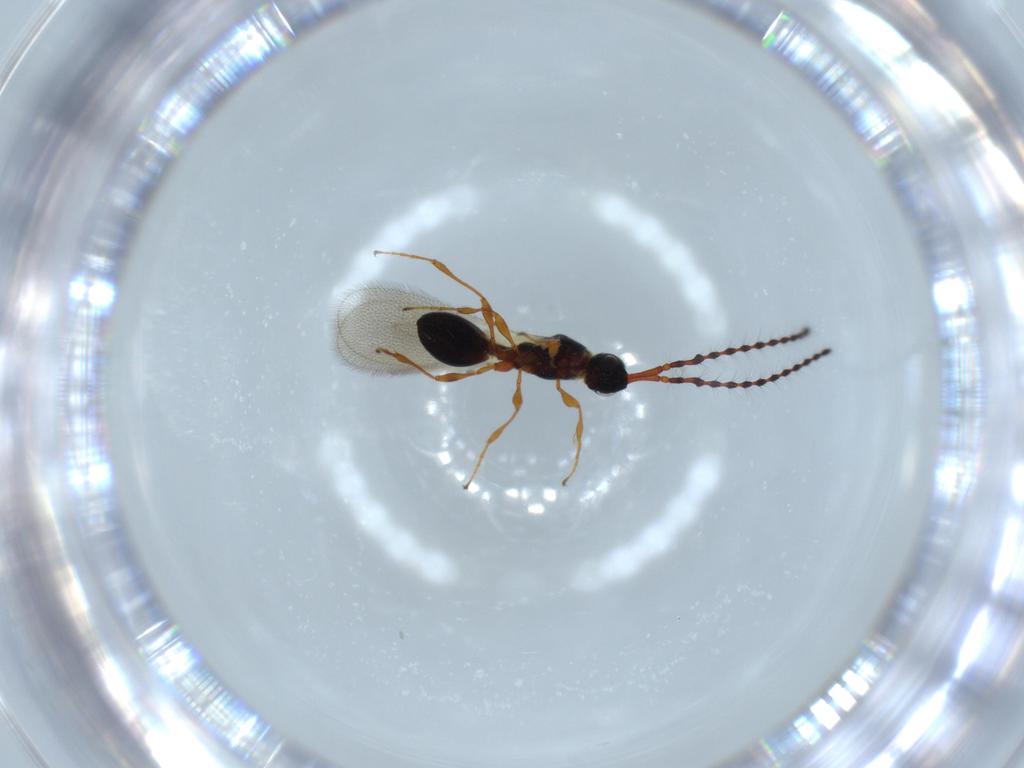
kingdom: Animalia
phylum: Arthropoda
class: Insecta
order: Hymenoptera
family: Diapriidae
